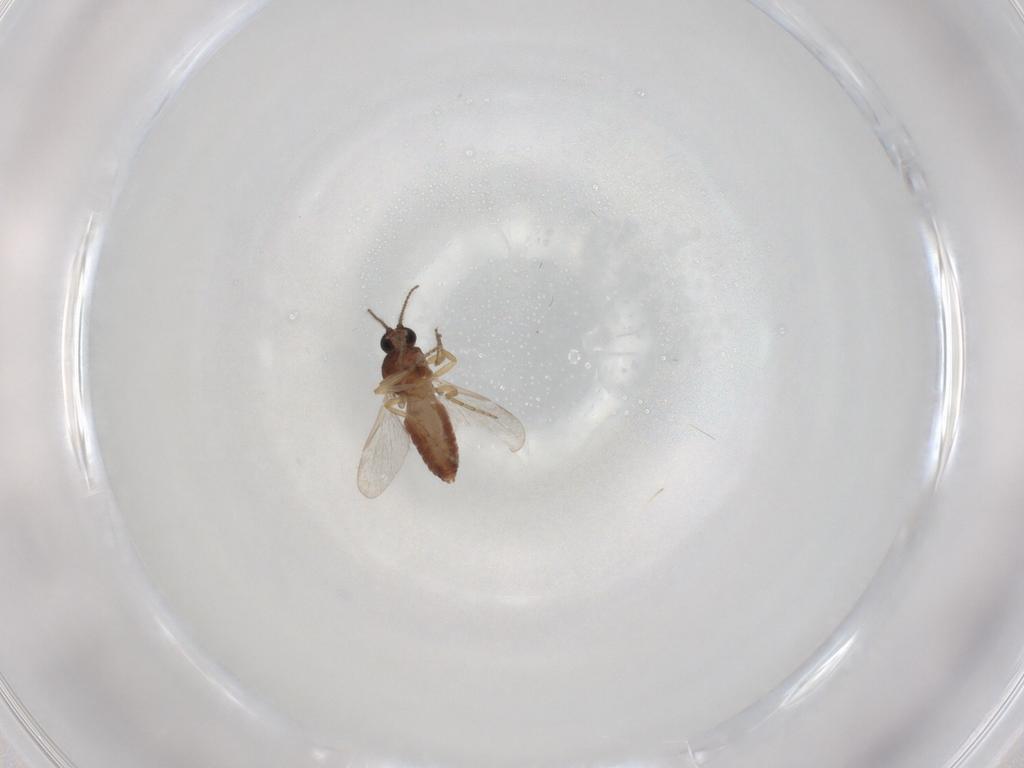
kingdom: Animalia
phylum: Arthropoda
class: Insecta
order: Diptera
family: Ceratopogonidae
